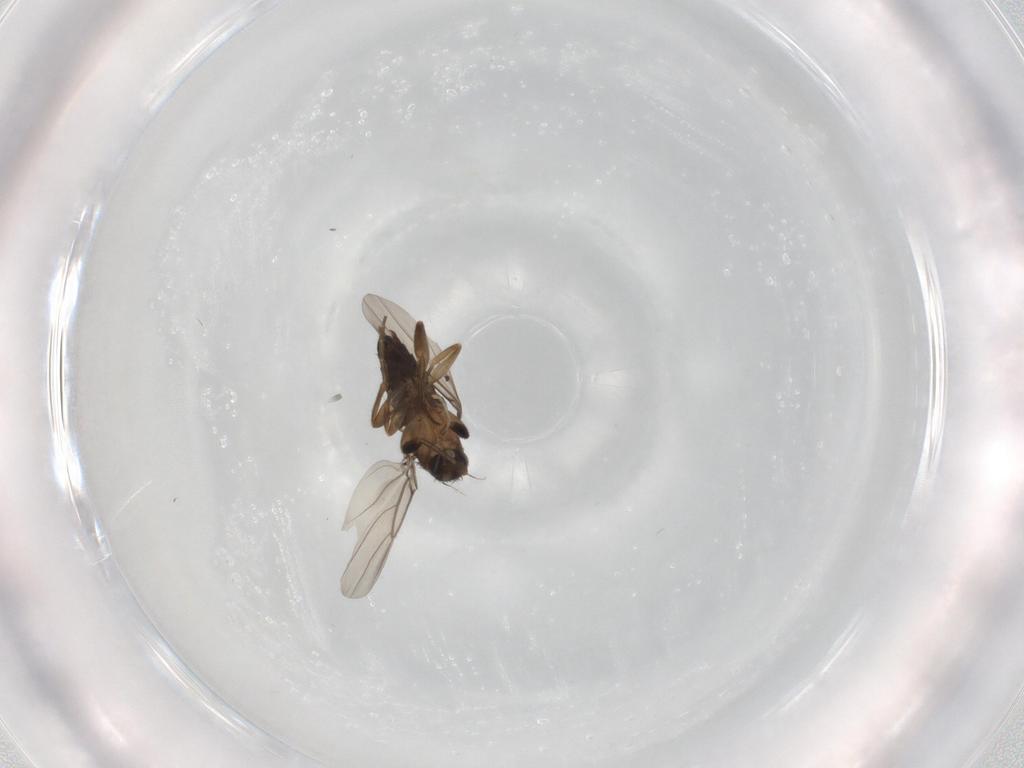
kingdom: Animalia
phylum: Arthropoda
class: Insecta
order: Diptera
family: Phoridae
